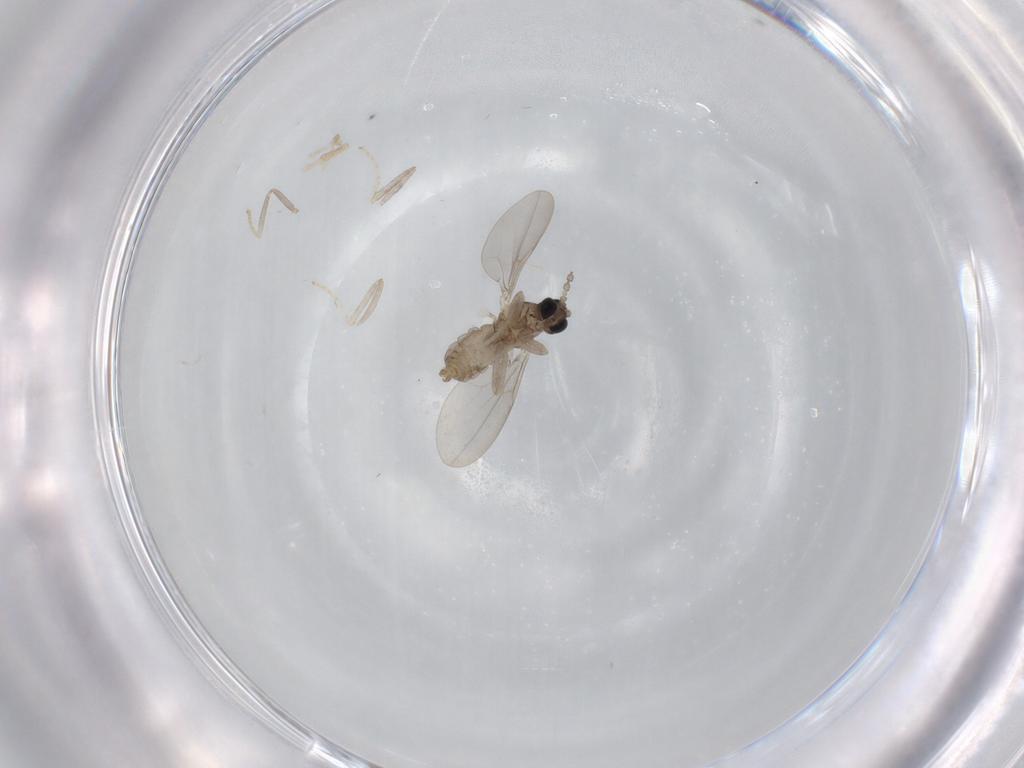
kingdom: Animalia
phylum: Arthropoda
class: Insecta
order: Diptera
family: Cecidomyiidae
